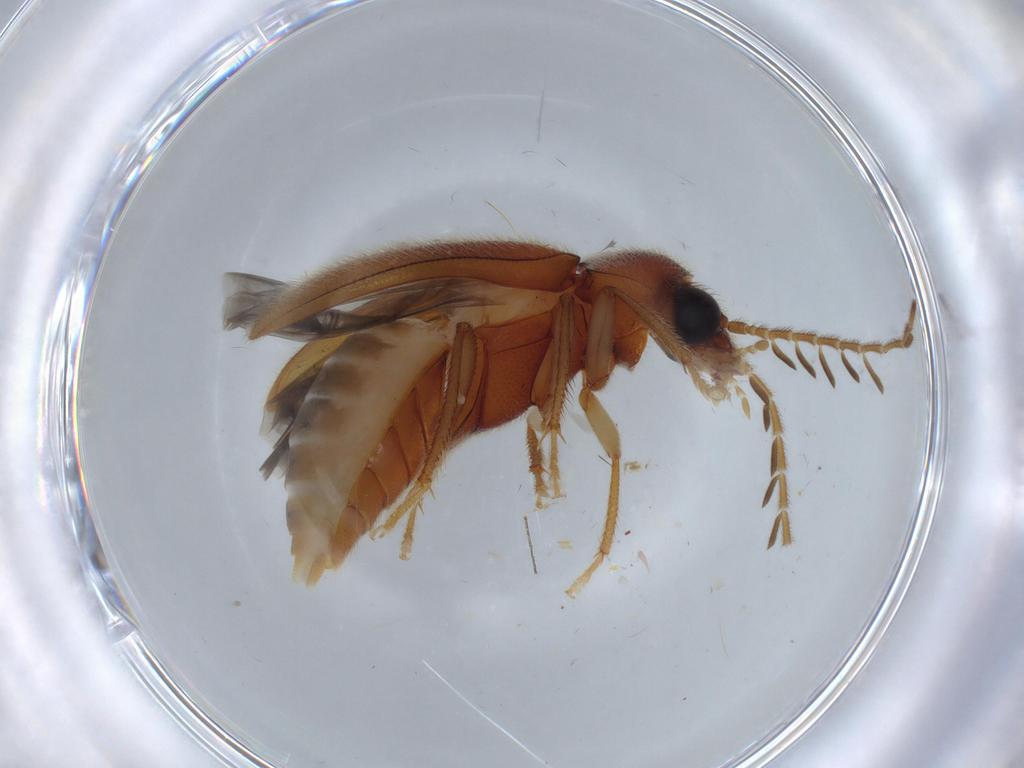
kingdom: Animalia
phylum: Arthropoda
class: Insecta
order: Coleoptera
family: Ptilodactylidae
